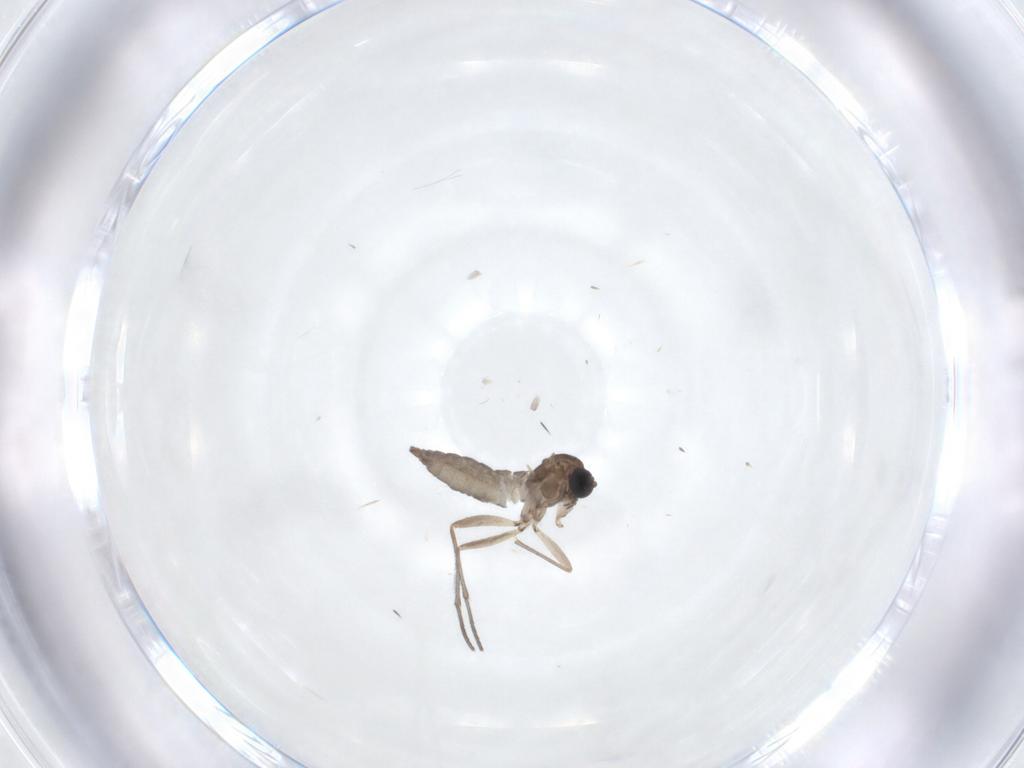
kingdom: Animalia
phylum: Arthropoda
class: Insecta
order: Diptera
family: Sciaridae
